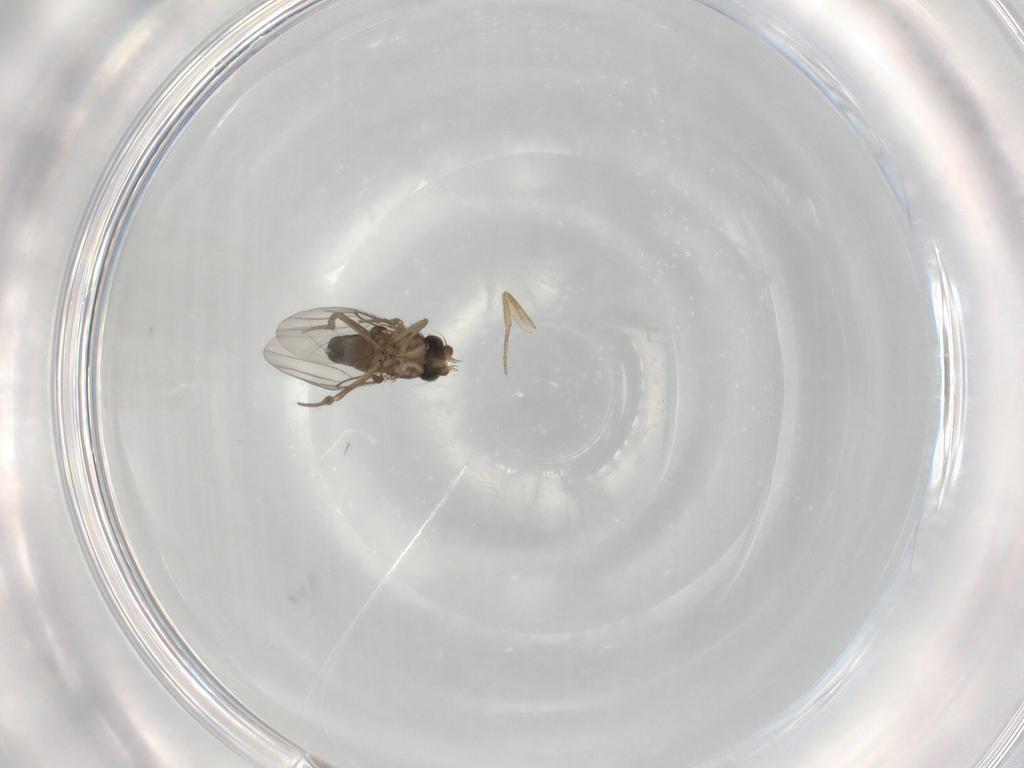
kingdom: Animalia
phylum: Arthropoda
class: Insecta
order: Diptera
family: Phoridae
